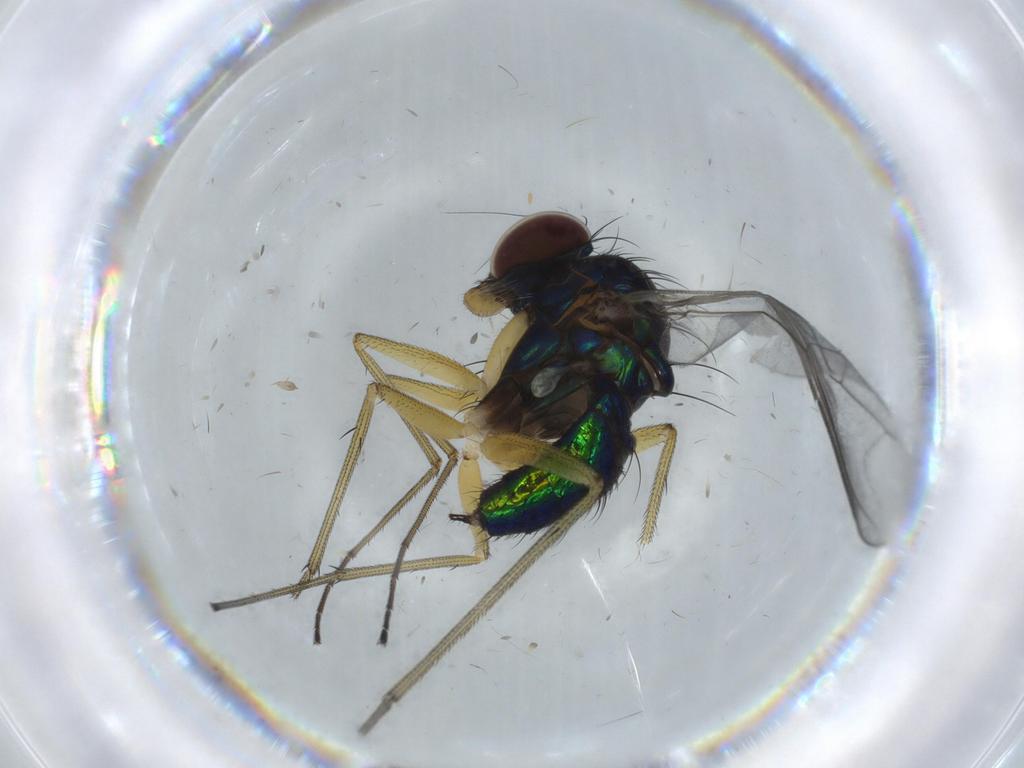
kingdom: Animalia
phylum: Arthropoda
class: Insecta
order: Diptera
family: Dolichopodidae
